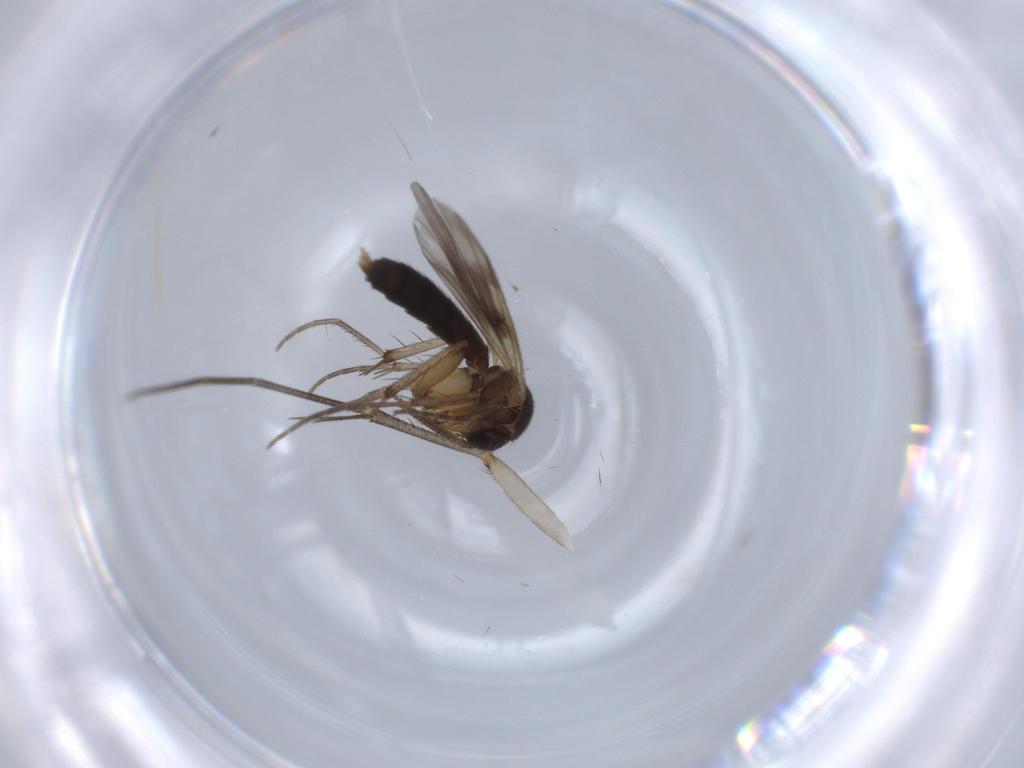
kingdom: Animalia
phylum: Arthropoda
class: Insecta
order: Diptera
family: Mycetophilidae
